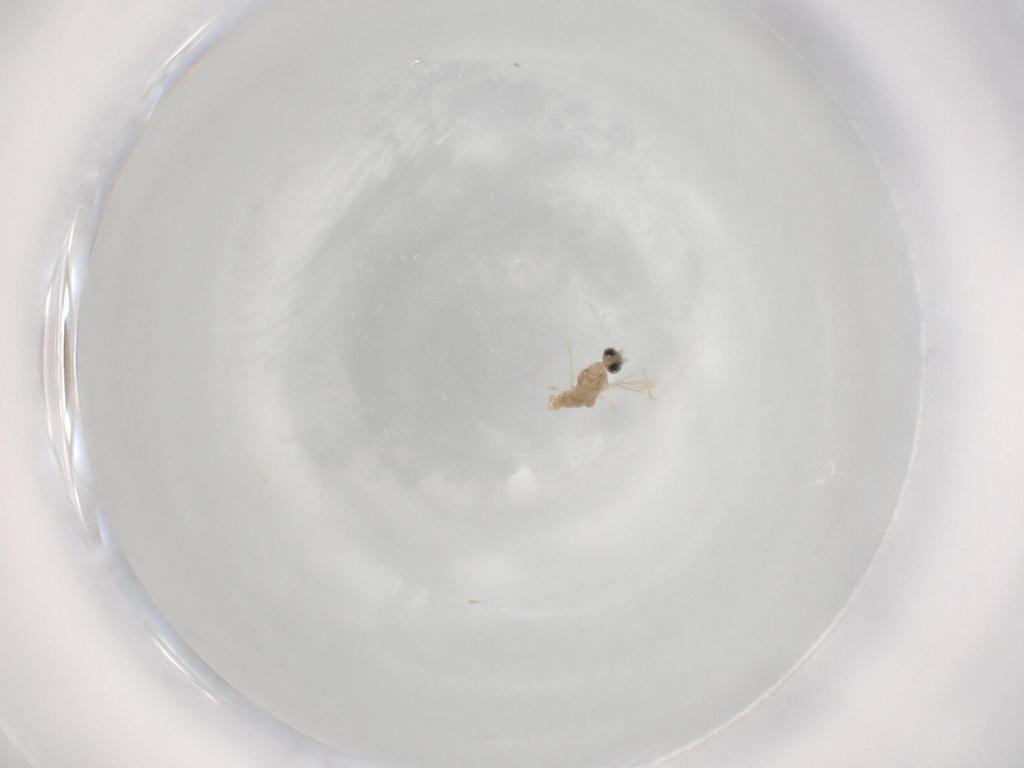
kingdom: Animalia
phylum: Arthropoda
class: Insecta
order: Diptera
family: Cecidomyiidae
